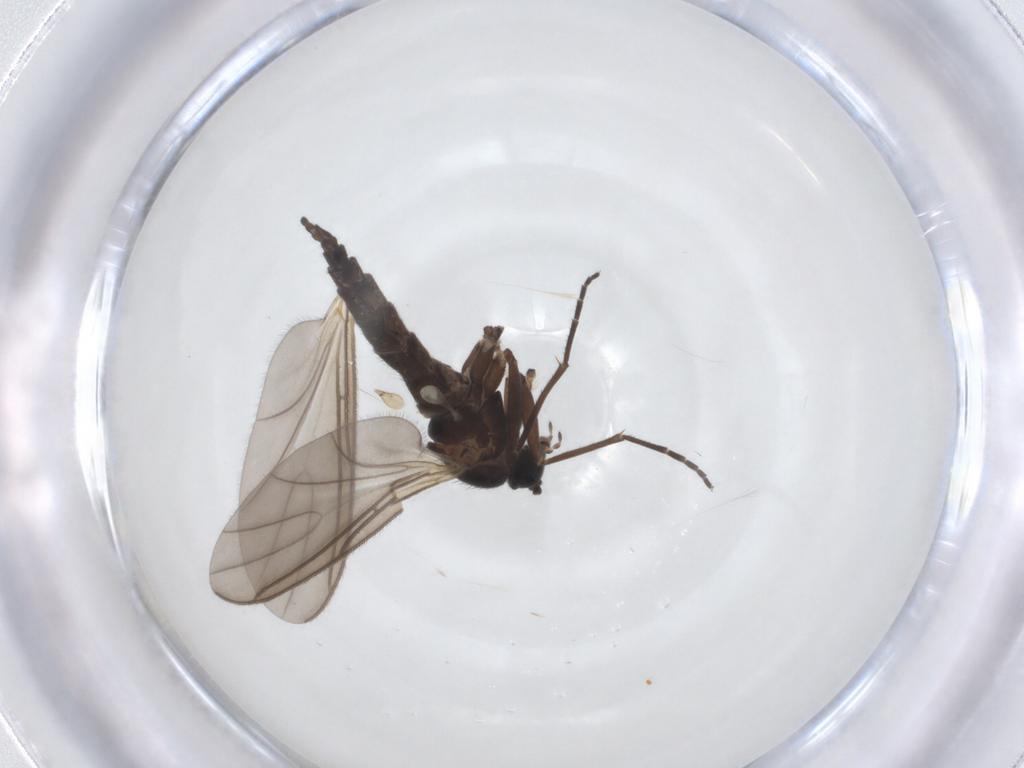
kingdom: Animalia
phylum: Arthropoda
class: Insecta
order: Diptera
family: Sciaridae
